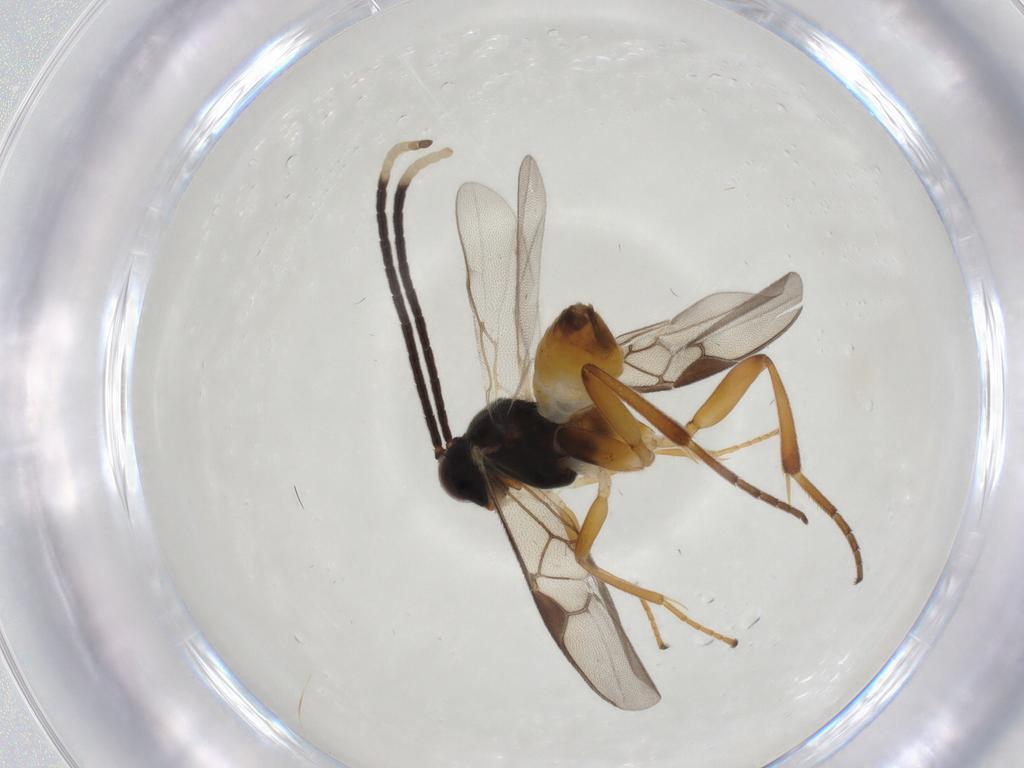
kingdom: Animalia
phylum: Arthropoda
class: Insecta
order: Hymenoptera
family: Braconidae
